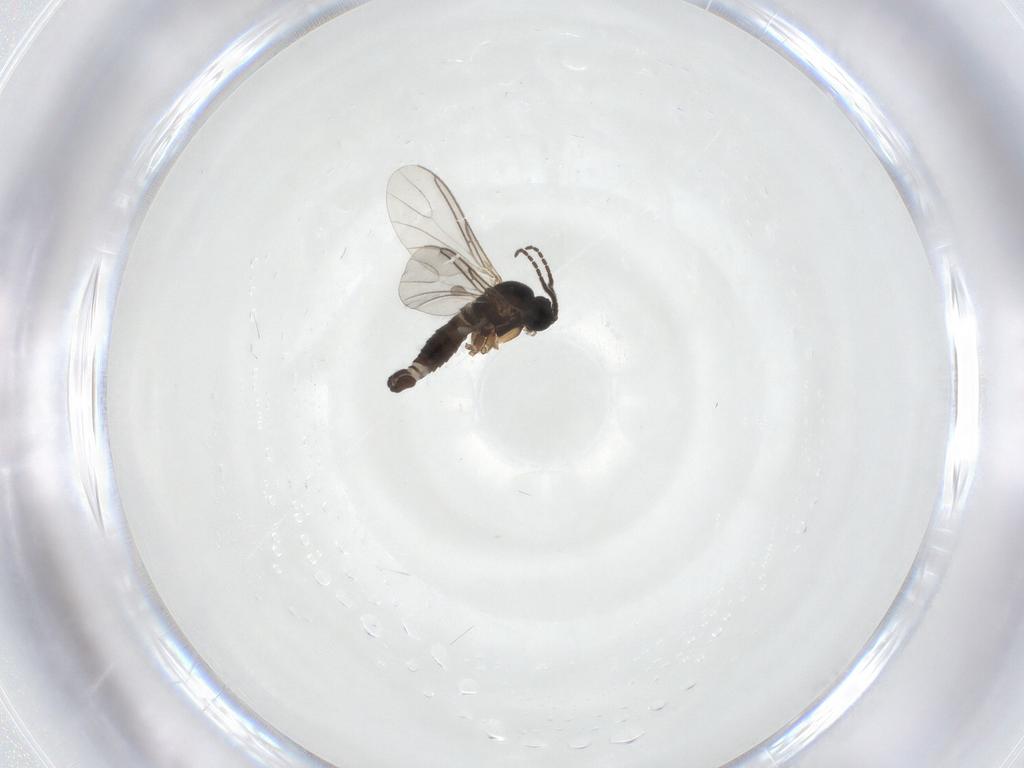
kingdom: Animalia
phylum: Arthropoda
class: Insecta
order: Diptera
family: Sciaridae
